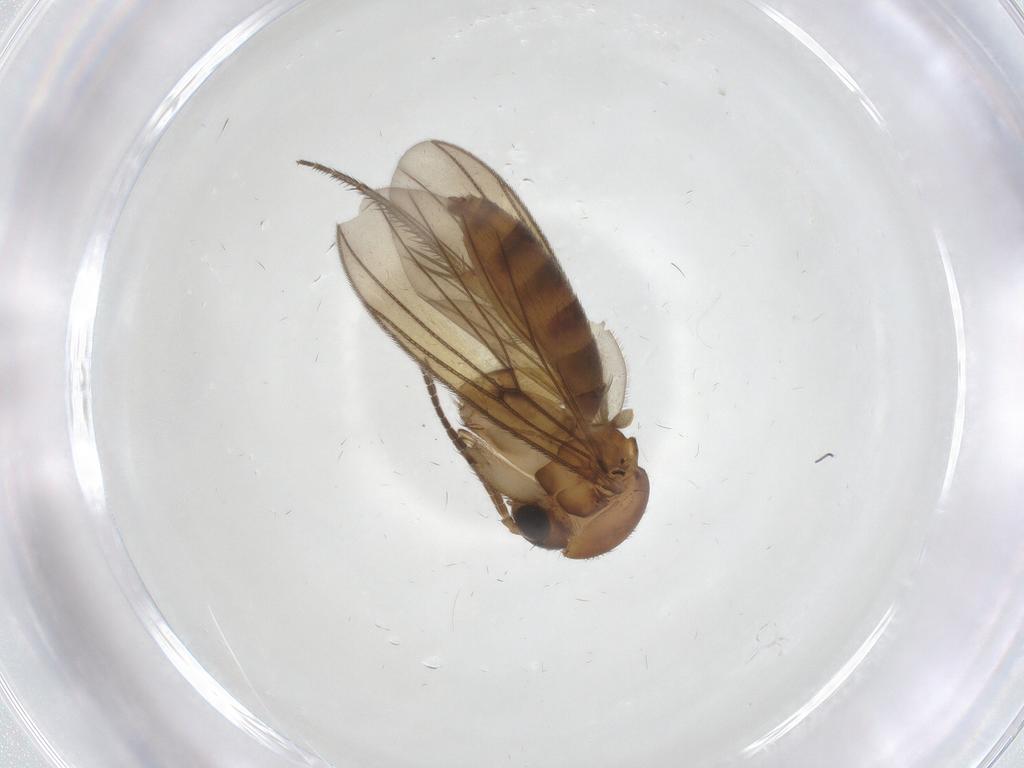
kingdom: Animalia
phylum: Arthropoda
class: Insecta
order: Diptera
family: Mycetophilidae
